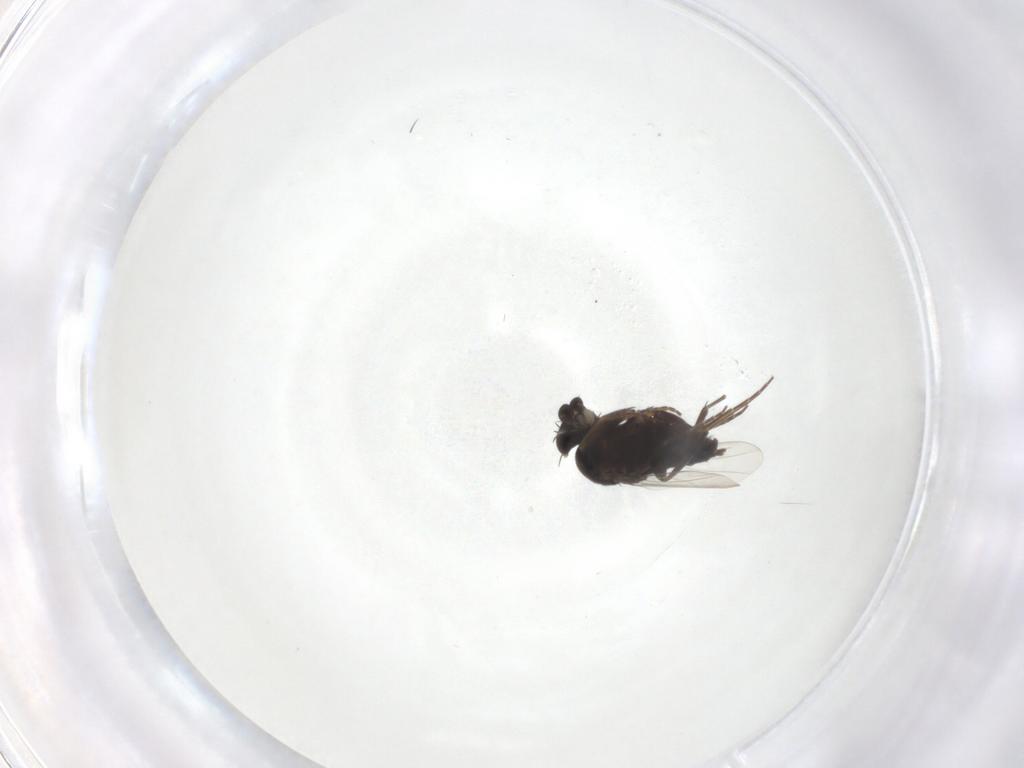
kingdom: Animalia
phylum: Arthropoda
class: Insecta
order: Diptera
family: Phoridae
